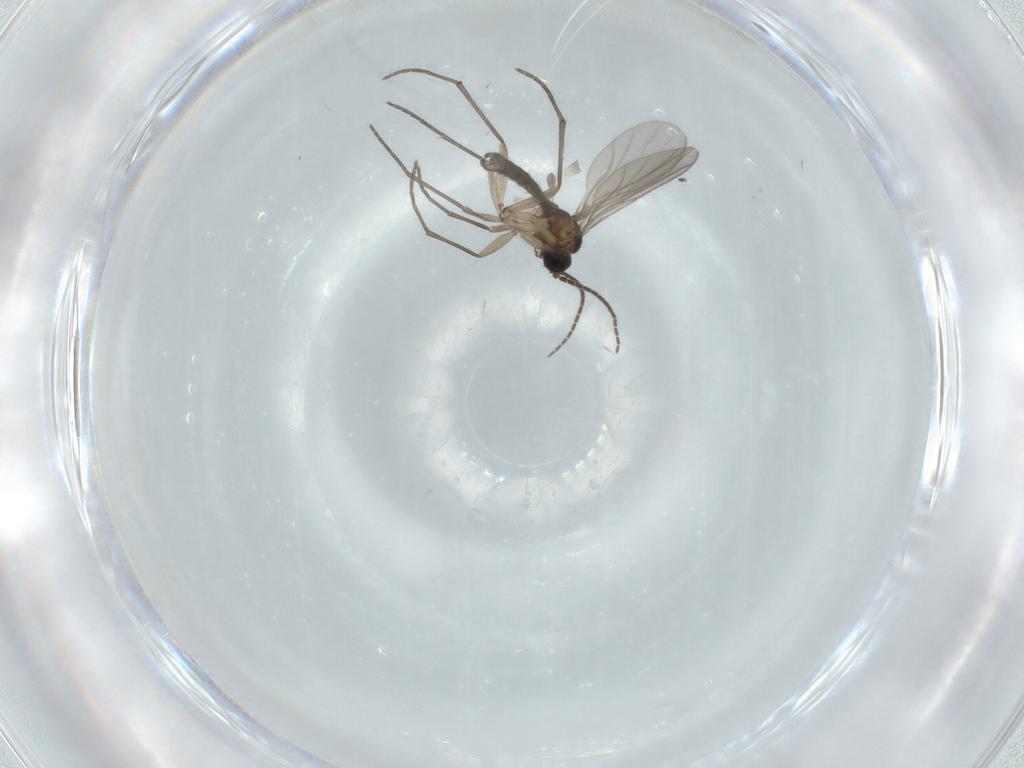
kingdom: Animalia
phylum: Arthropoda
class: Insecta
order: Diptera
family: Sciaridae
